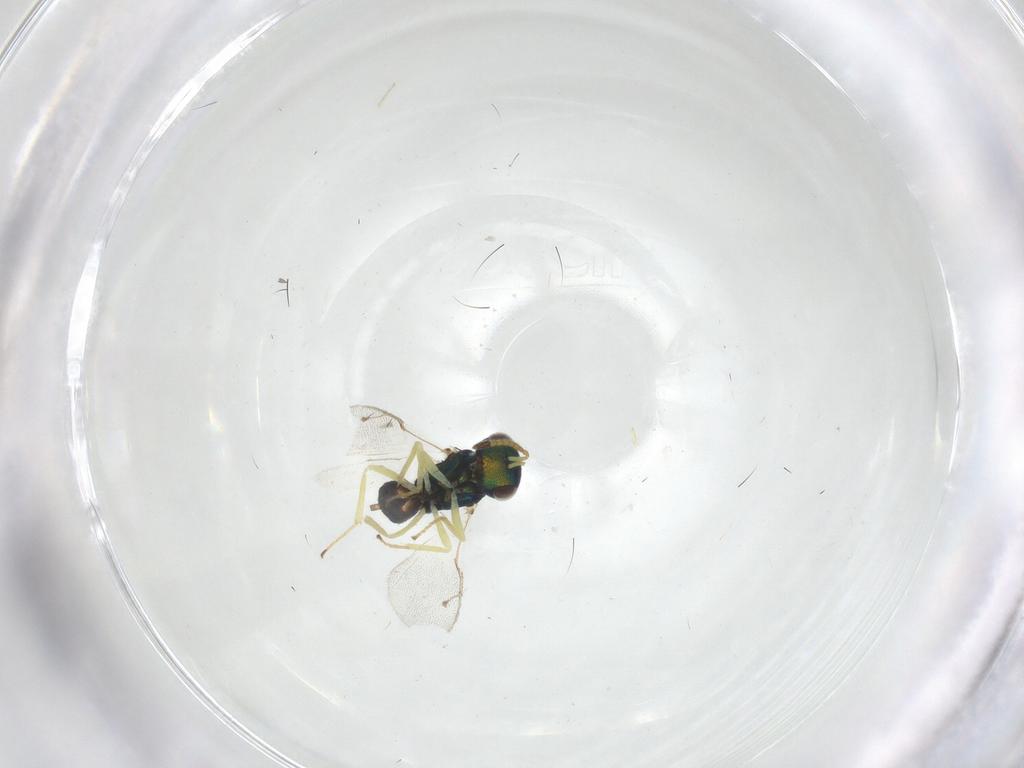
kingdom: Animalia
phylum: Arthropoda
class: Insecta
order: Hymenoptera
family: Pteromalidae
